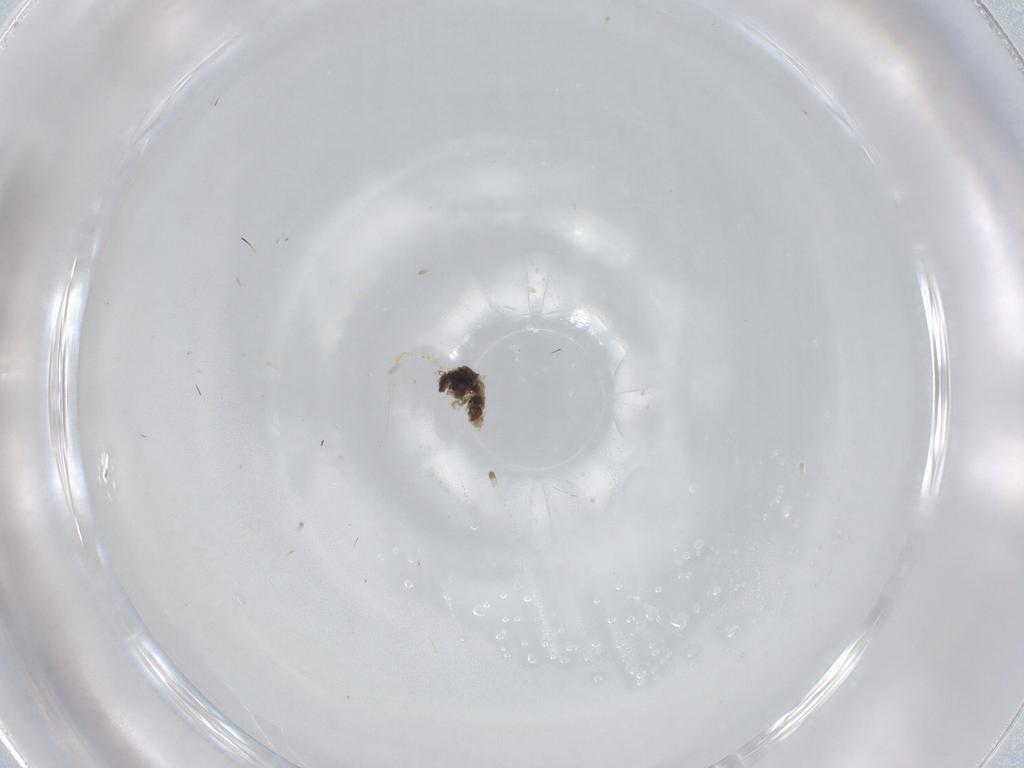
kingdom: Animalia
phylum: Arthropoda
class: Insecta
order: Diptera
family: Cecidomyiidae
